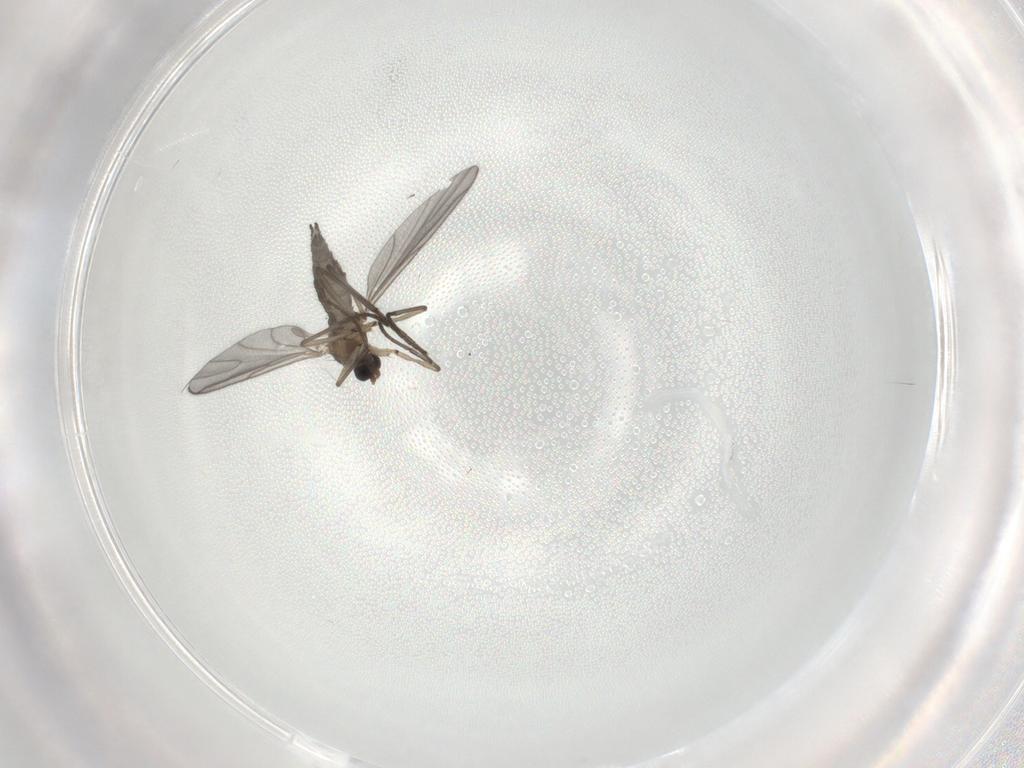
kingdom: Animalia
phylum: Arthropoda
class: Insecta
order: Diptera
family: Sciaridae
